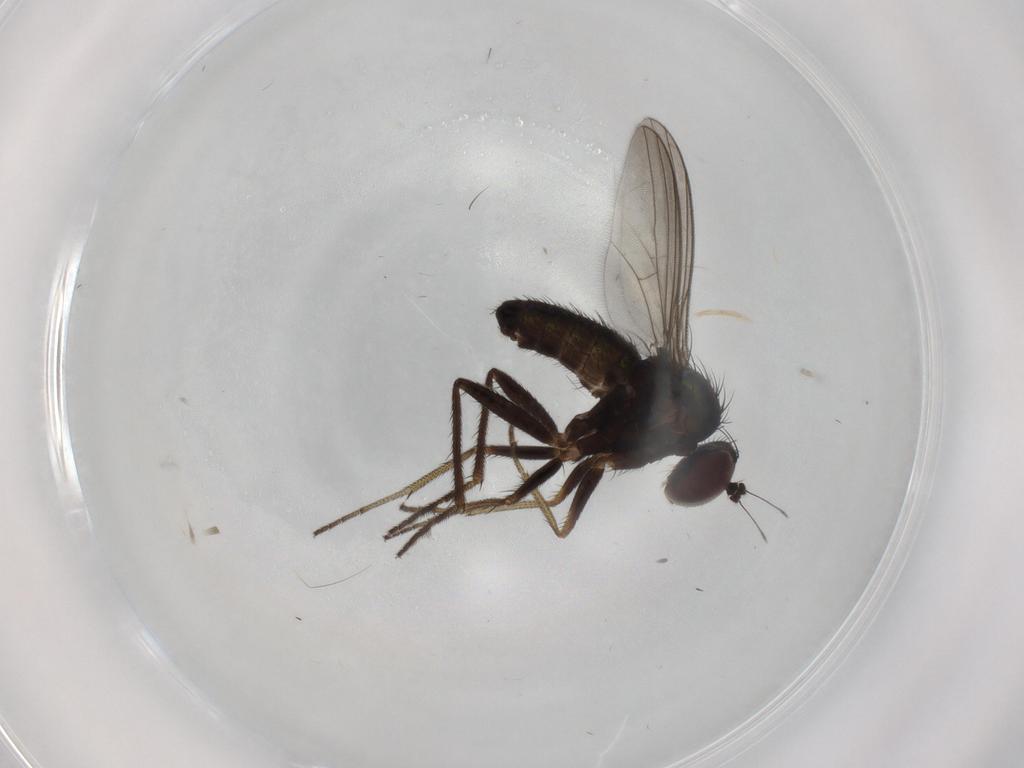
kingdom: Animalia
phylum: Arthropoda
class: Insecta
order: Diptera
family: Dolichopodidae
